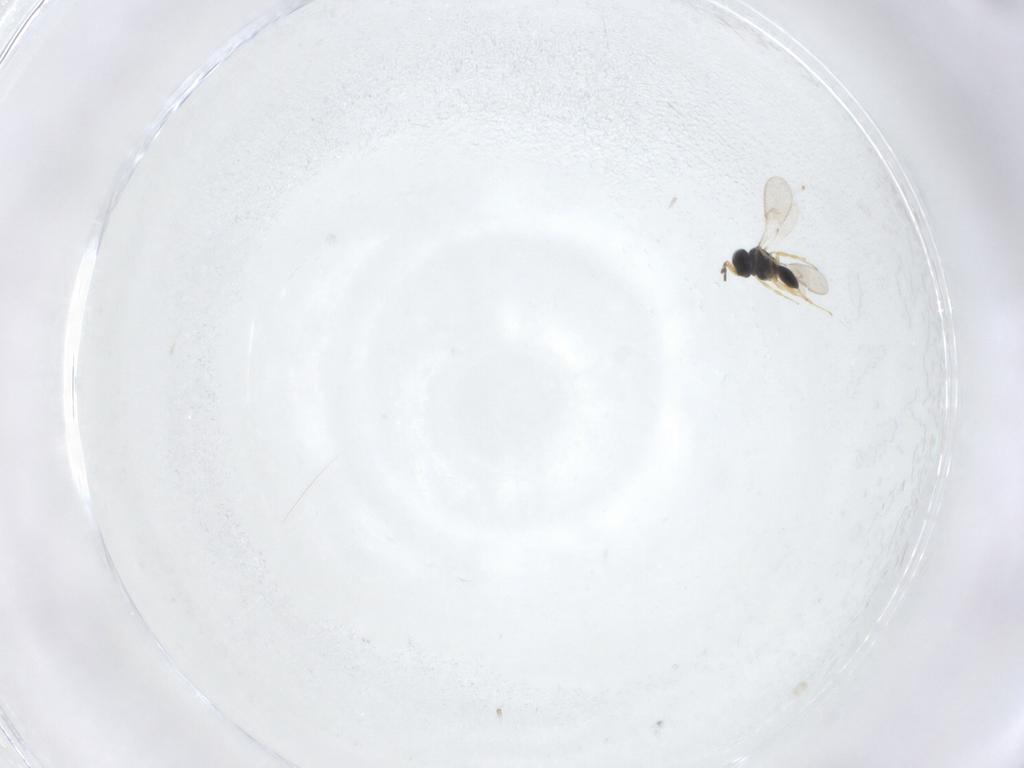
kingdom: Animalia
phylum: Arthropoda
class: Insecta
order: Hymenoptera
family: Scelionidae
